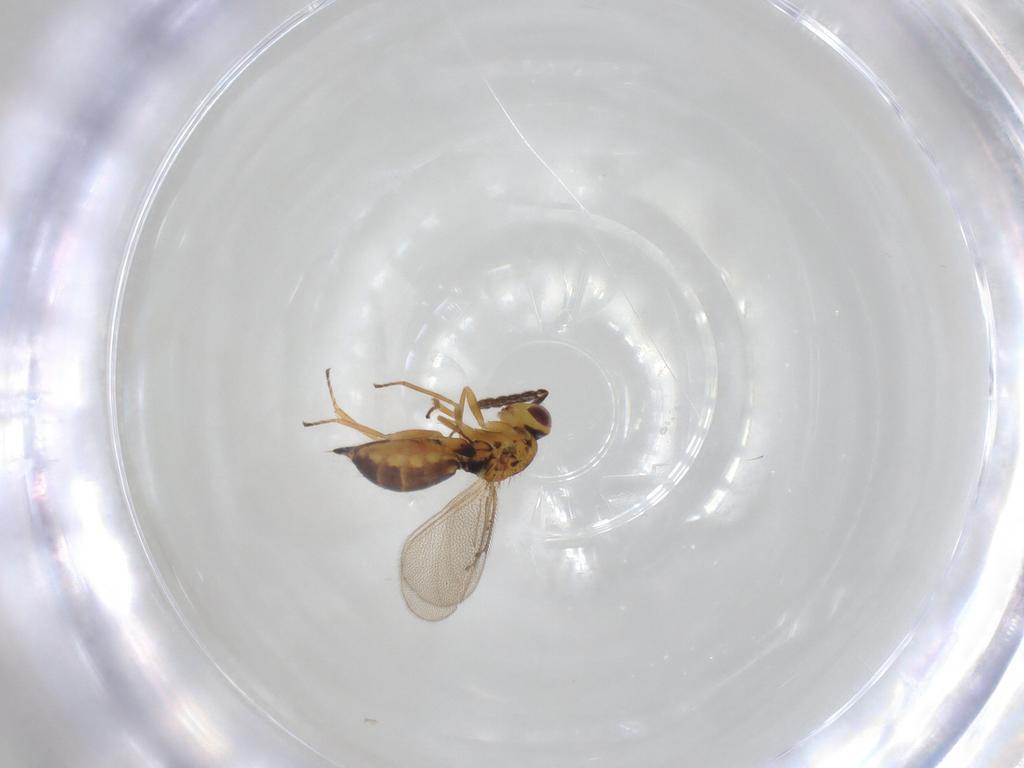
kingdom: Animalia
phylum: Arthropoda
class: Insecta
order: Hymenoptera
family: Eulophidae
